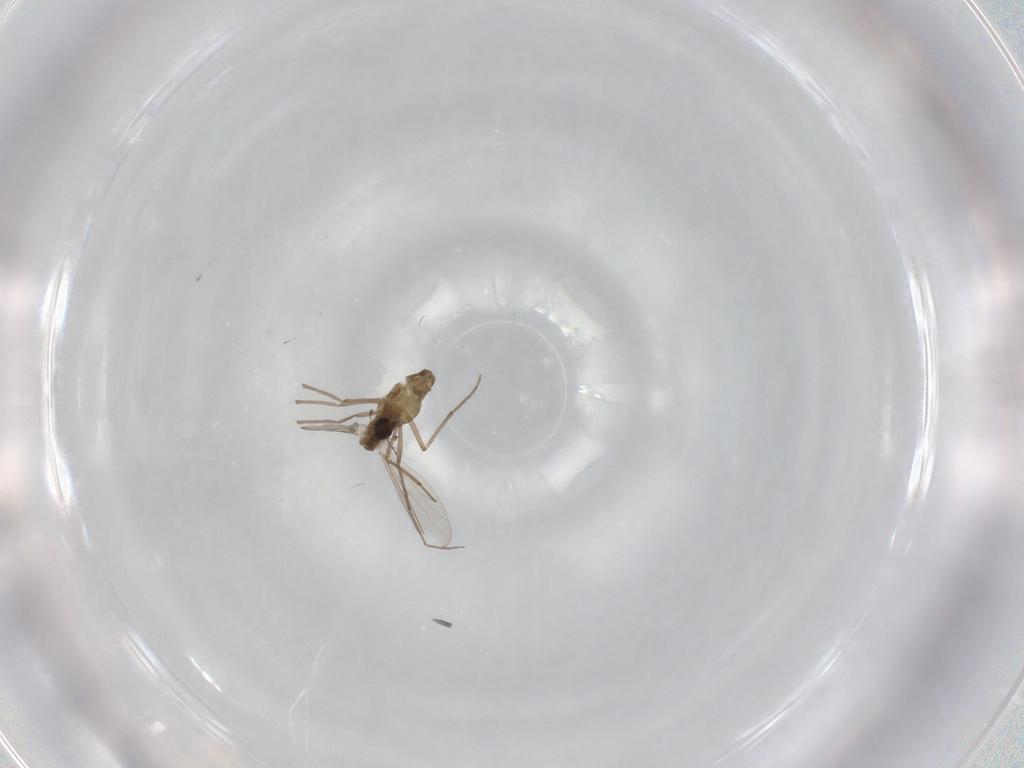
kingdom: Animalia
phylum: Arthropoda
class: Insecta
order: Diptera
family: Chironomidae
